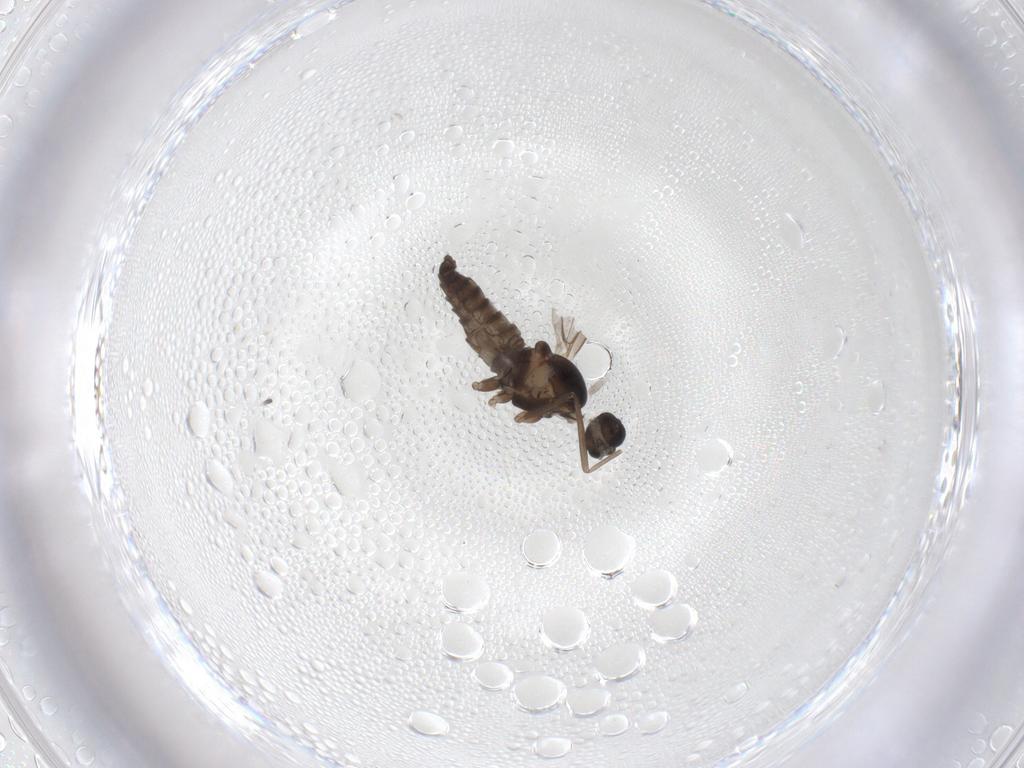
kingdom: Animalia
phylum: Arthropoda
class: Insecta
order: Diptera
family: Cecidomyiidae
